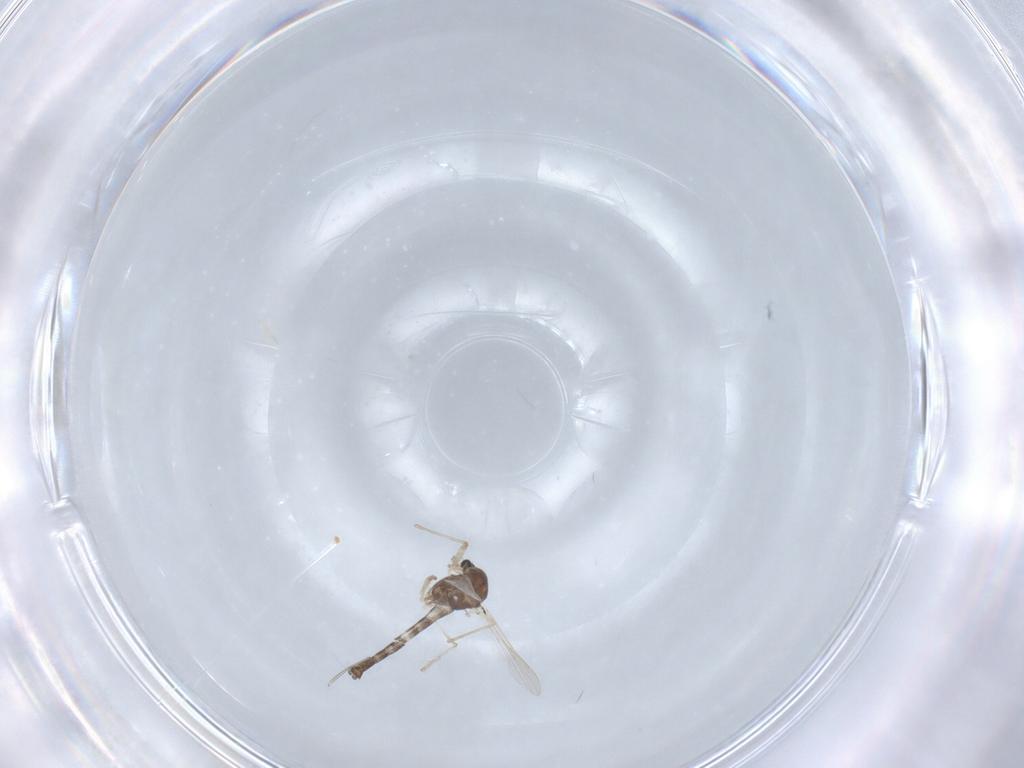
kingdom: Animalia
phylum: Arthropoda
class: Insecta
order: Diptera
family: Chironomidae
